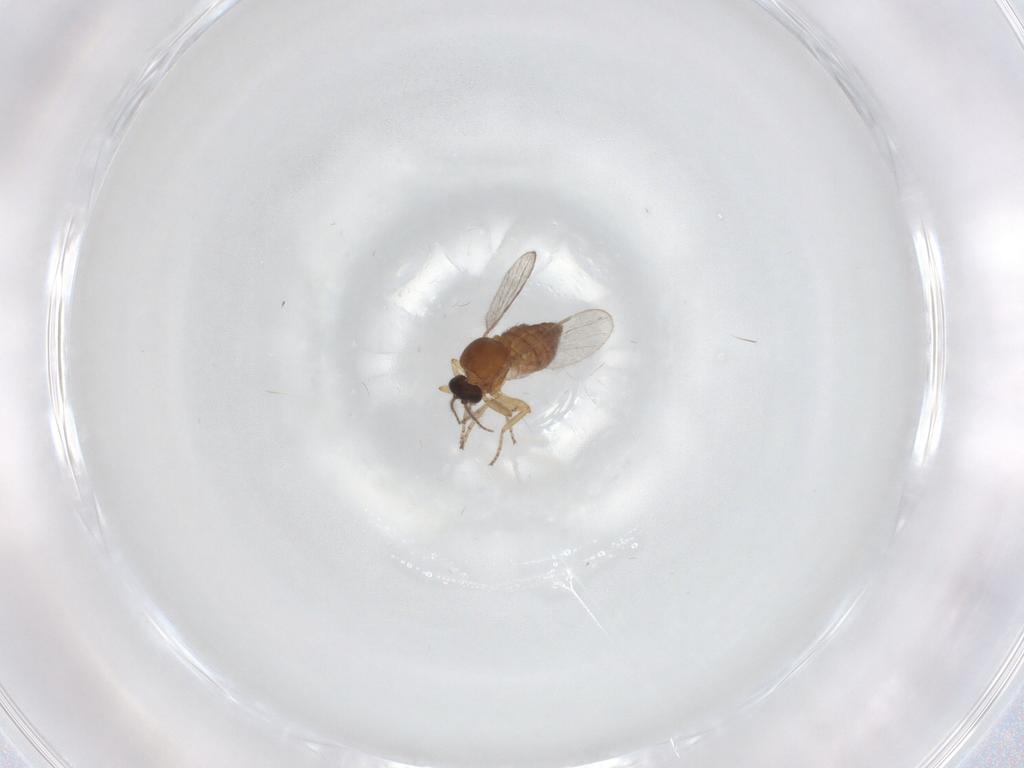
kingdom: Animalia
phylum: Arthropoda
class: Insecta
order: Diptera
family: Ceratopogonidae
